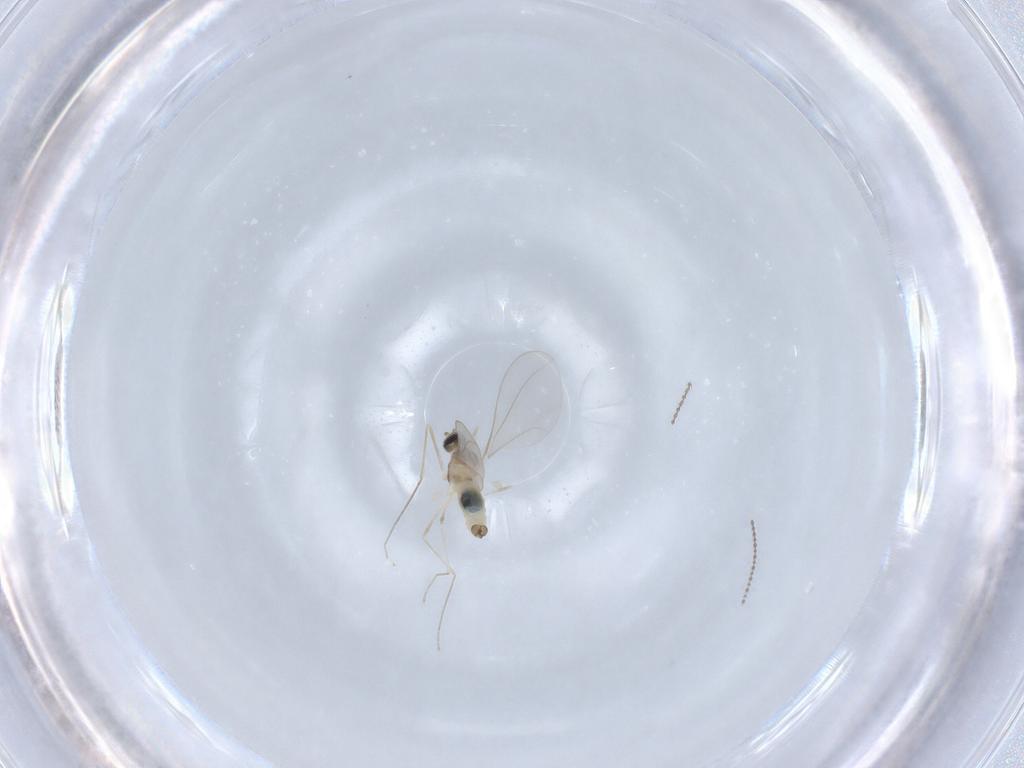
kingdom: Animalia
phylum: Arthropoda
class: Insecta
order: Diptera
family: Cecidomyiidae
